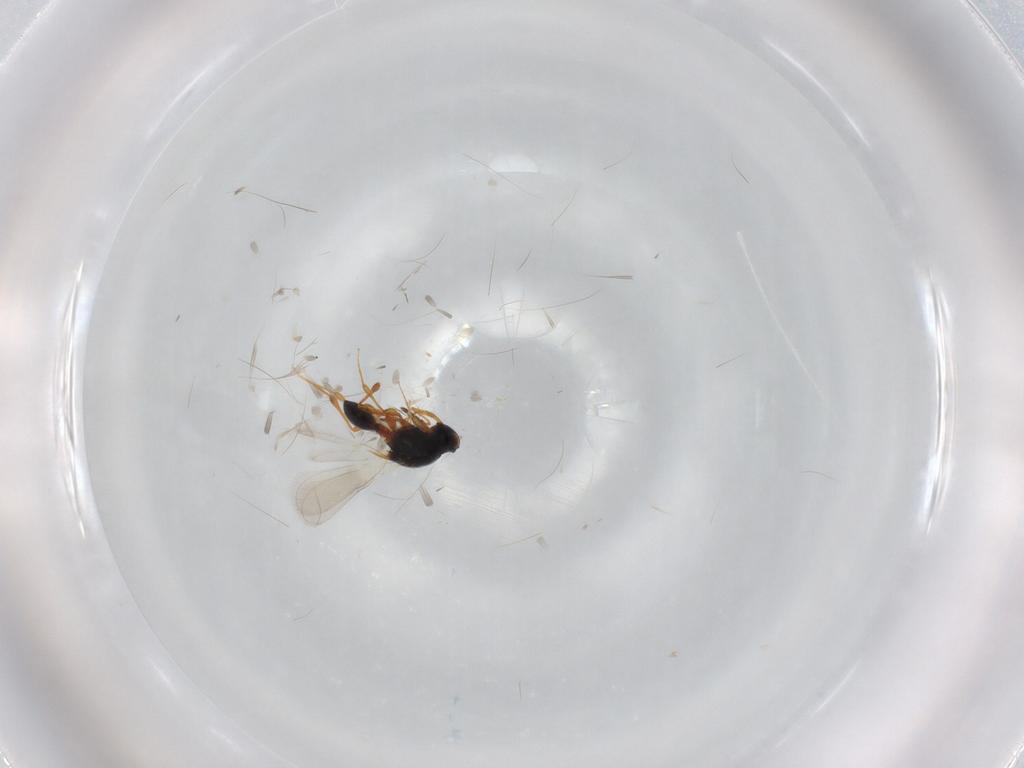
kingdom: Animalia
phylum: Arthropoda
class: Insecta
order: Hymenoptera
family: Platygastridae
